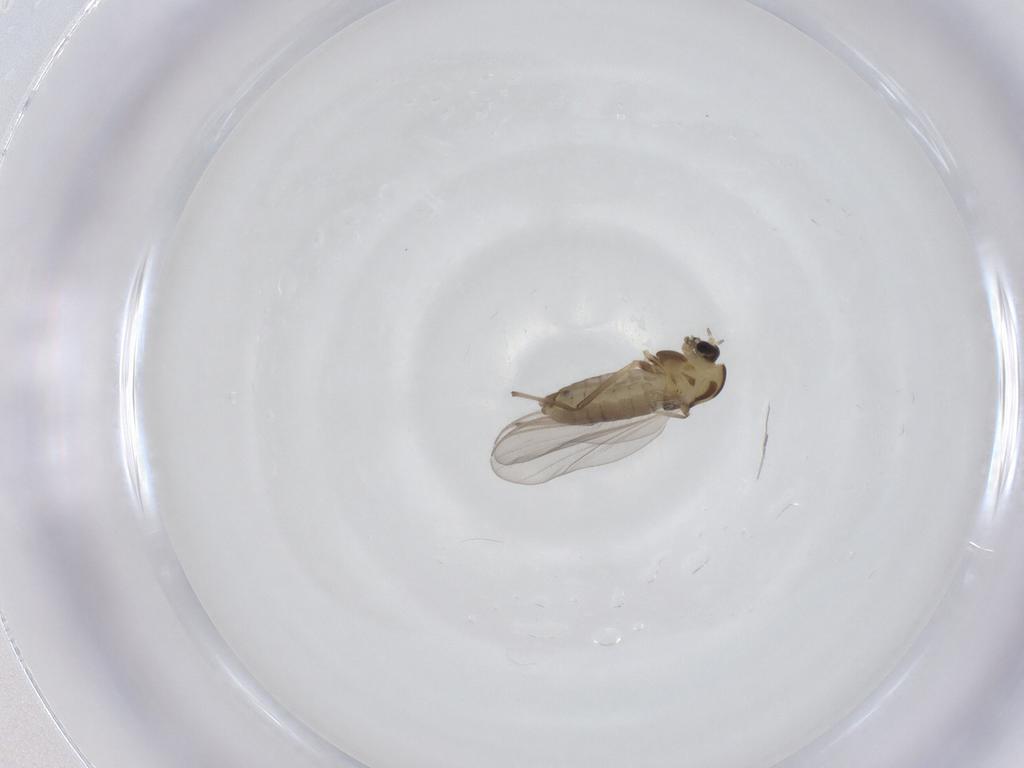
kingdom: Animalia
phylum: Arthropoda
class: Insecta
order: Diptera
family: Chironomidae
